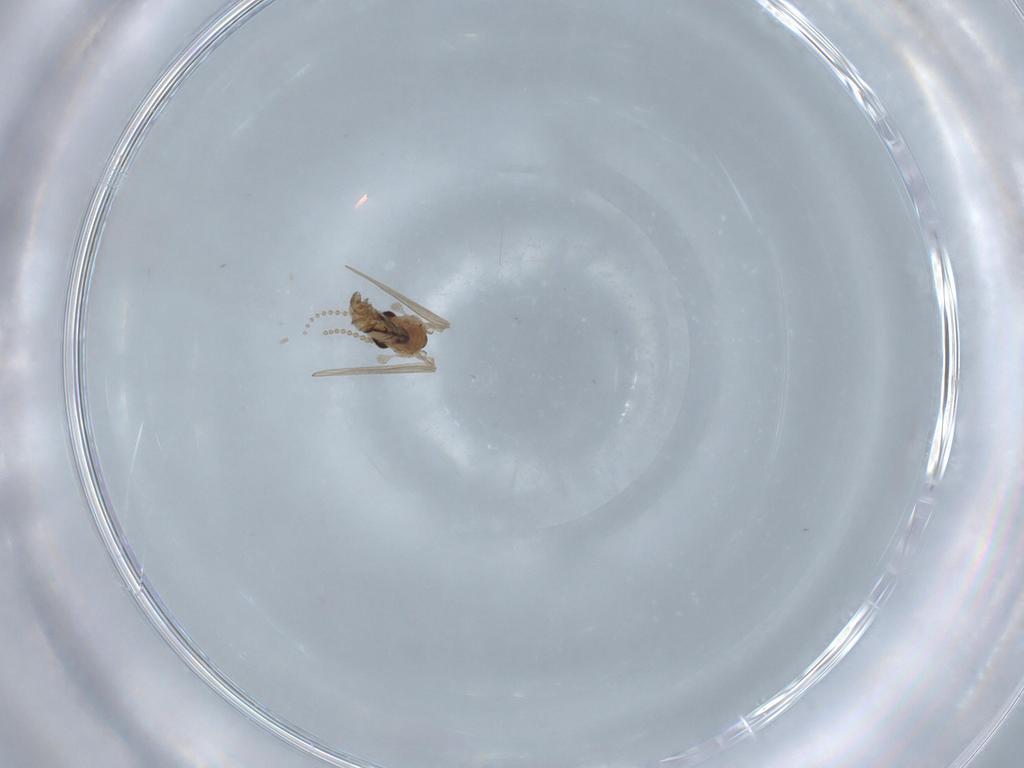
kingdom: Animalia
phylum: Arthropoda
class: Insecta
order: Diptera
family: Psychodidae
